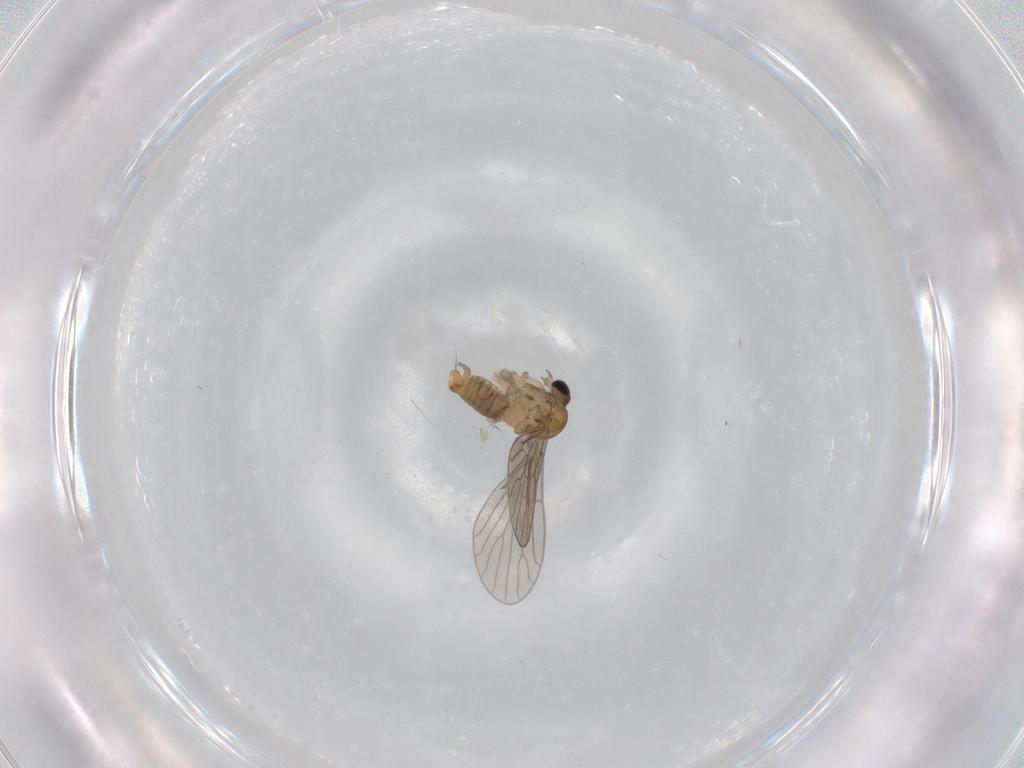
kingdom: Animalia
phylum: Arthropoda
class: Insecta
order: Diptera
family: Psychodidae
